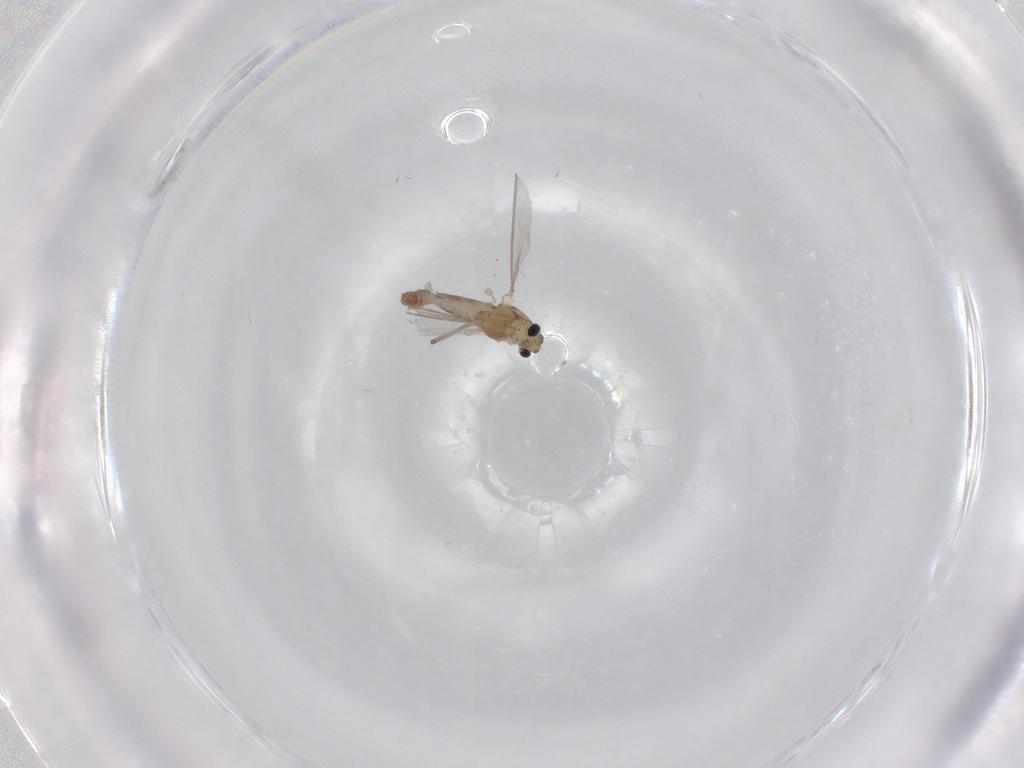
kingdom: Animalia
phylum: Arthropoda
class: Insecta
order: Diptera
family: Chironomidae
